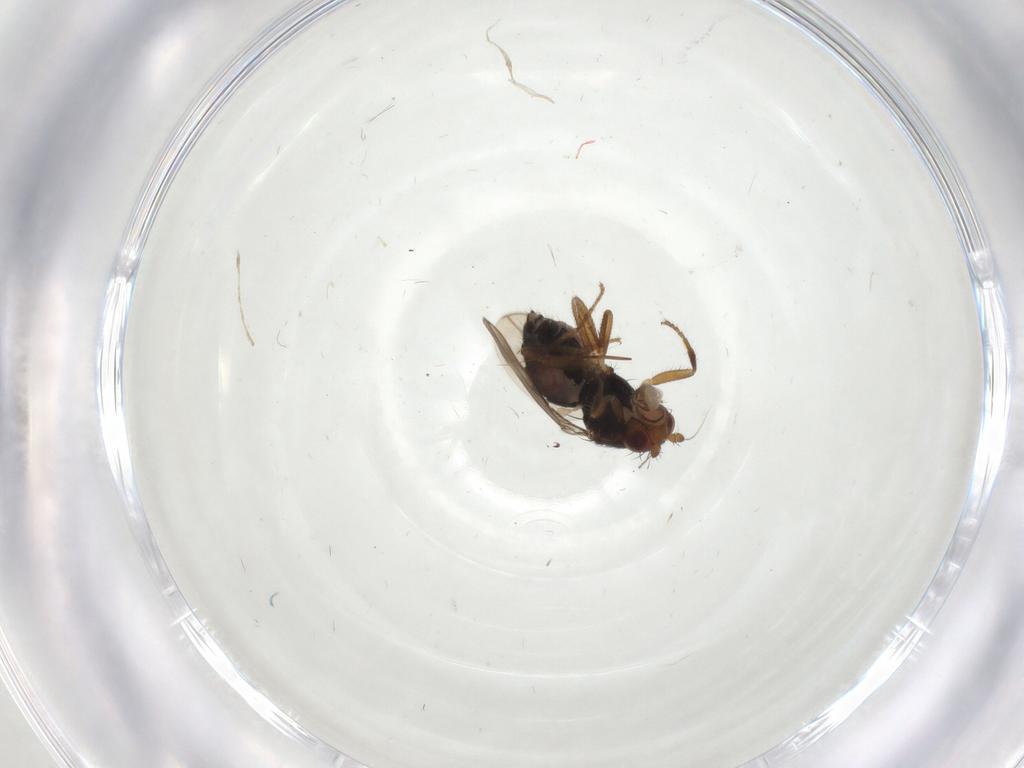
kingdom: Animalia
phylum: Arthropoda
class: Insecta
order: Diptera
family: Sphaeroceridae
